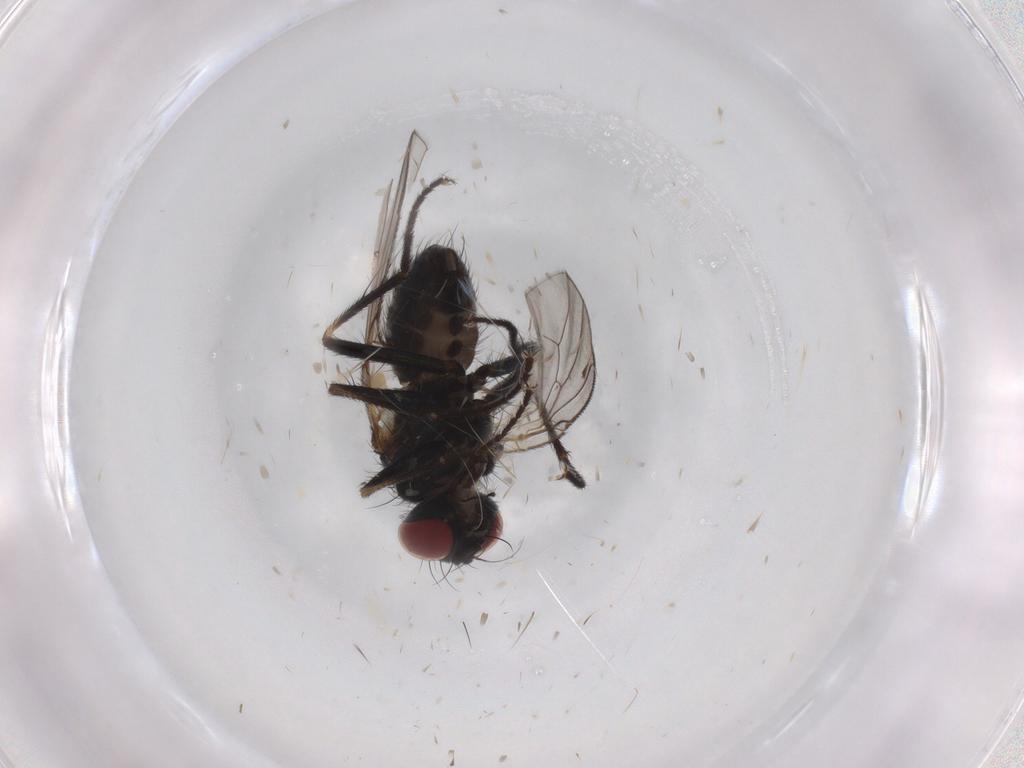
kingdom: Animalia
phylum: Arthropoda
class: Insecta
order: Diptera
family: Muscidae
